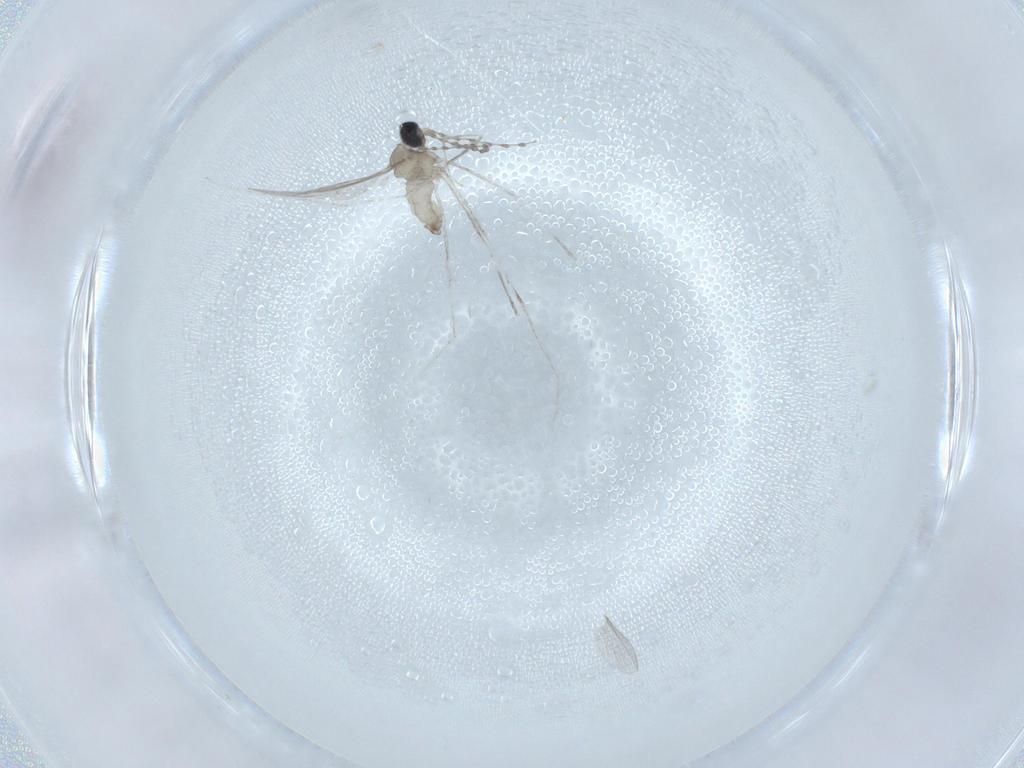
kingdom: Animalia
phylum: Arthropoda
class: Insecta
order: Diptera
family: Cecidomyiidae
